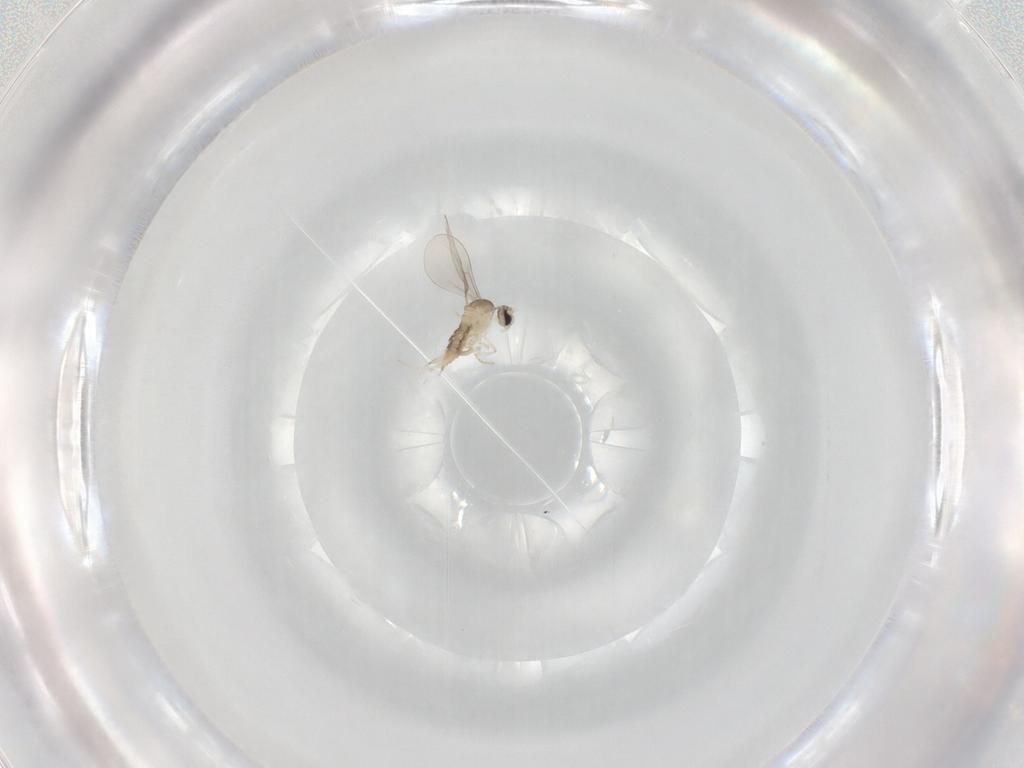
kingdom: Animalia
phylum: Arthropoda
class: Insecta
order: Diptera
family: Cecidomyiidae
